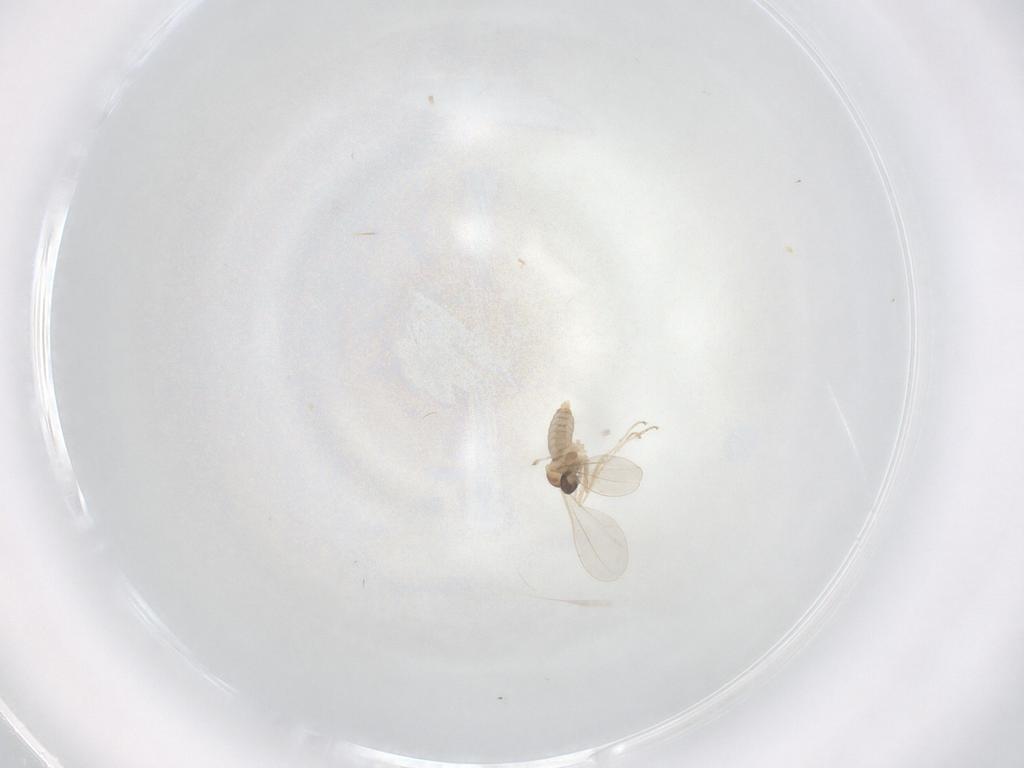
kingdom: Animalia
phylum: Arthropoda
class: Insecta
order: Diptera
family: Cecidomyiidae
